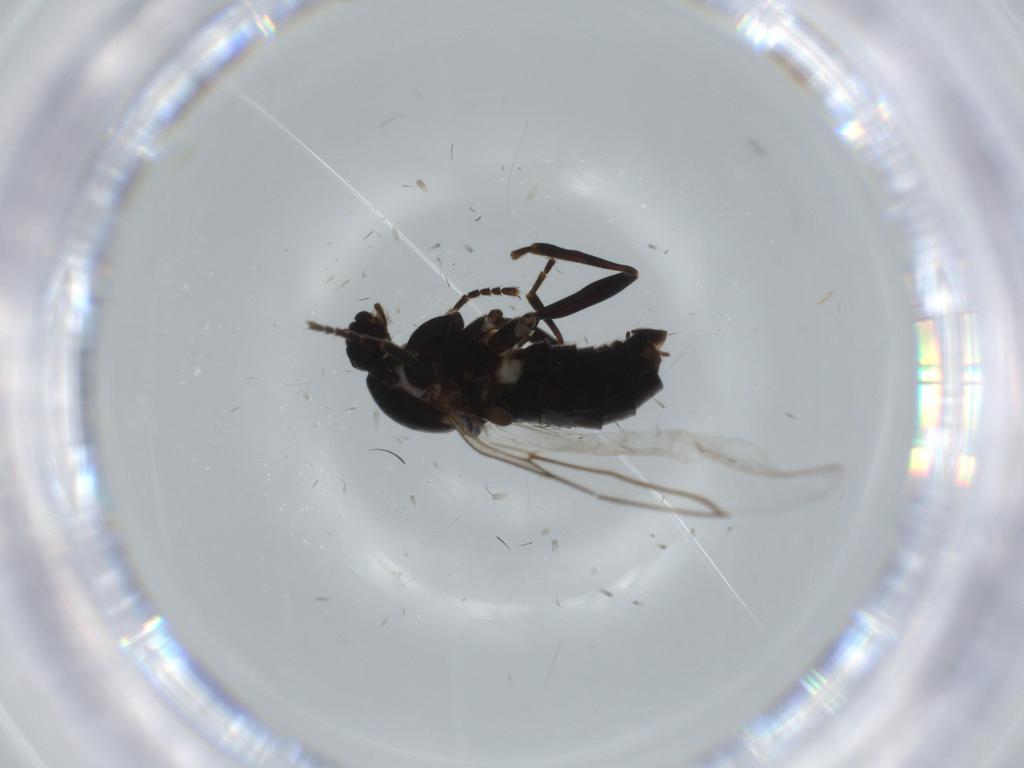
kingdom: Animalia
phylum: Arthropoda
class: Insecta
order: Diptera
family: Scatopsidae
